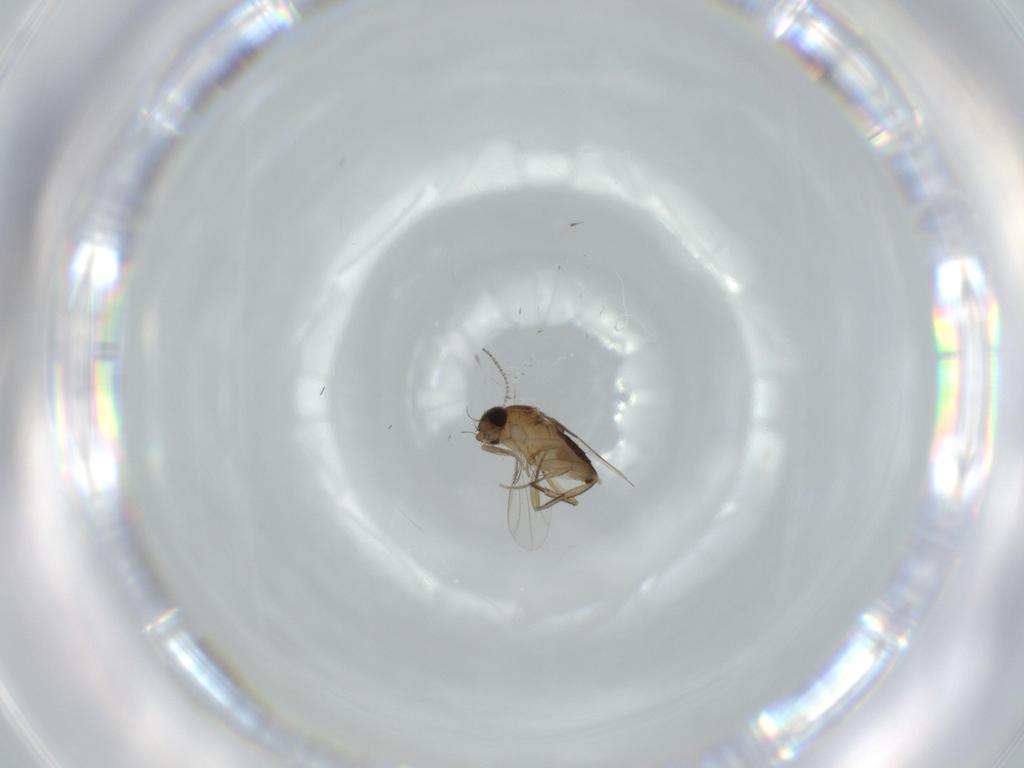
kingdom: Animalia
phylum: Arthropoda
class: Insecta
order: Diptera
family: Phoridae
